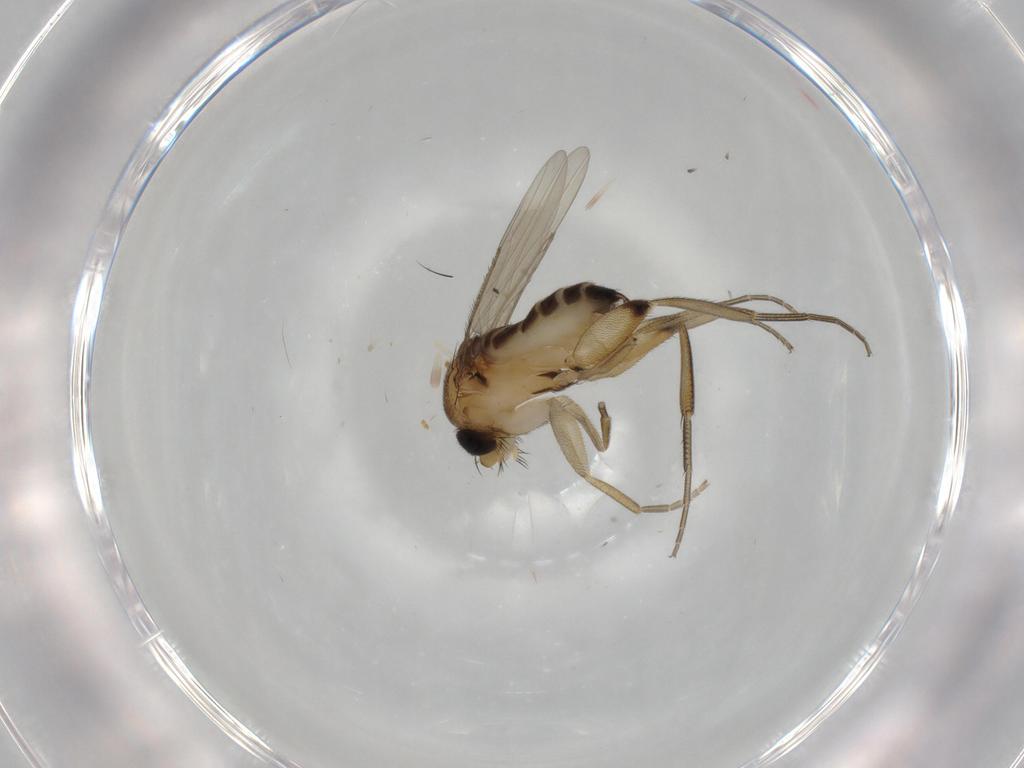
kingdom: Animalia
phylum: Arthropoda
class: Insecta
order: Diptera
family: Phoridae
